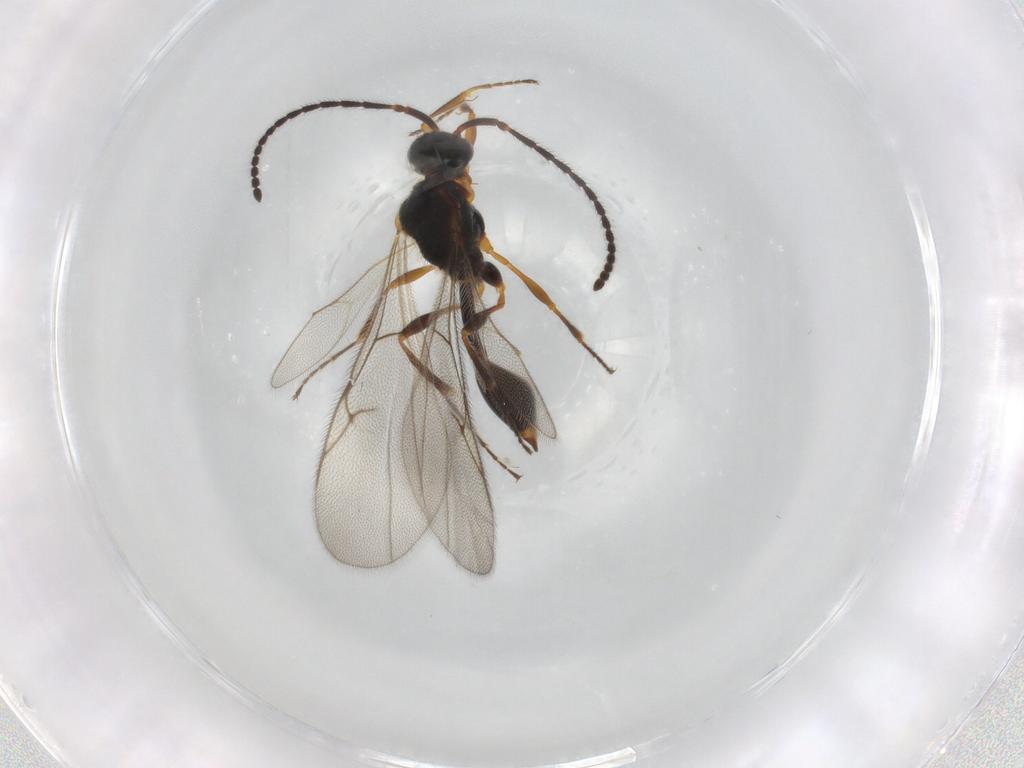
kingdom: Animalia
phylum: Arthropoda
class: Insecta
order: Hymenoptera
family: Diapriidae
